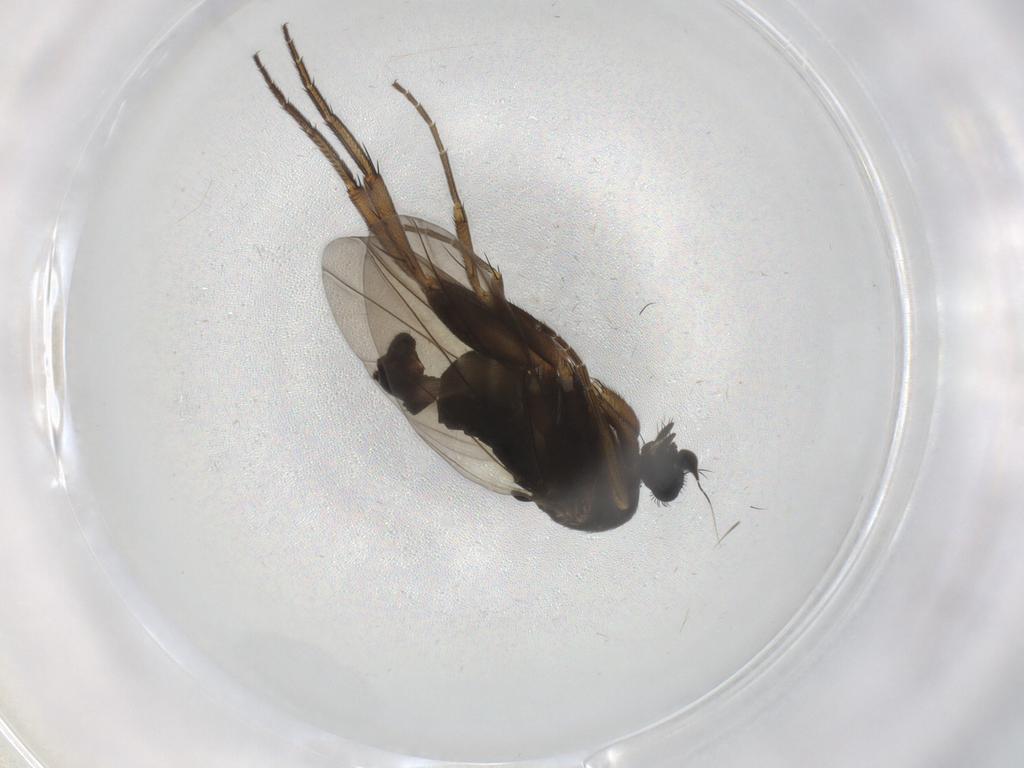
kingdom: Animalia
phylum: Arthropoda
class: Insecta
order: Diptera
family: Phoridae
